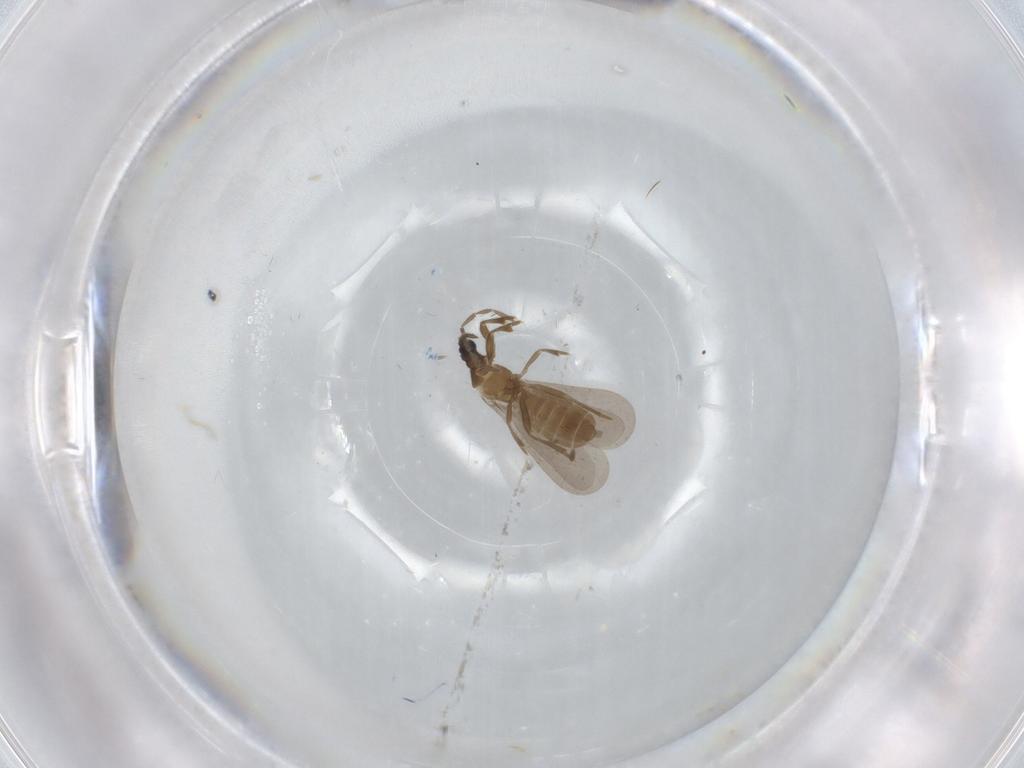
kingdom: Animalia
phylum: Arthropoda
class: Insecta
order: Hemiptera
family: Enicocephalidae
